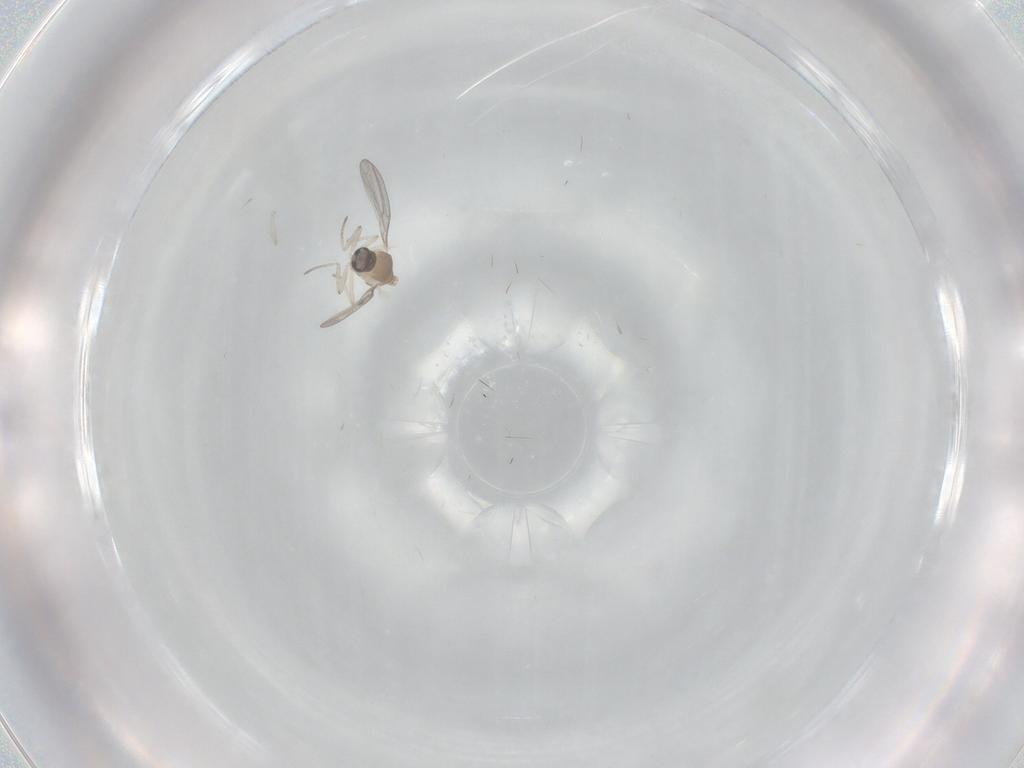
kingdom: Animalia
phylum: Arthropoda
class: Insecta
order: Diptera
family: Cecidomyiidae
